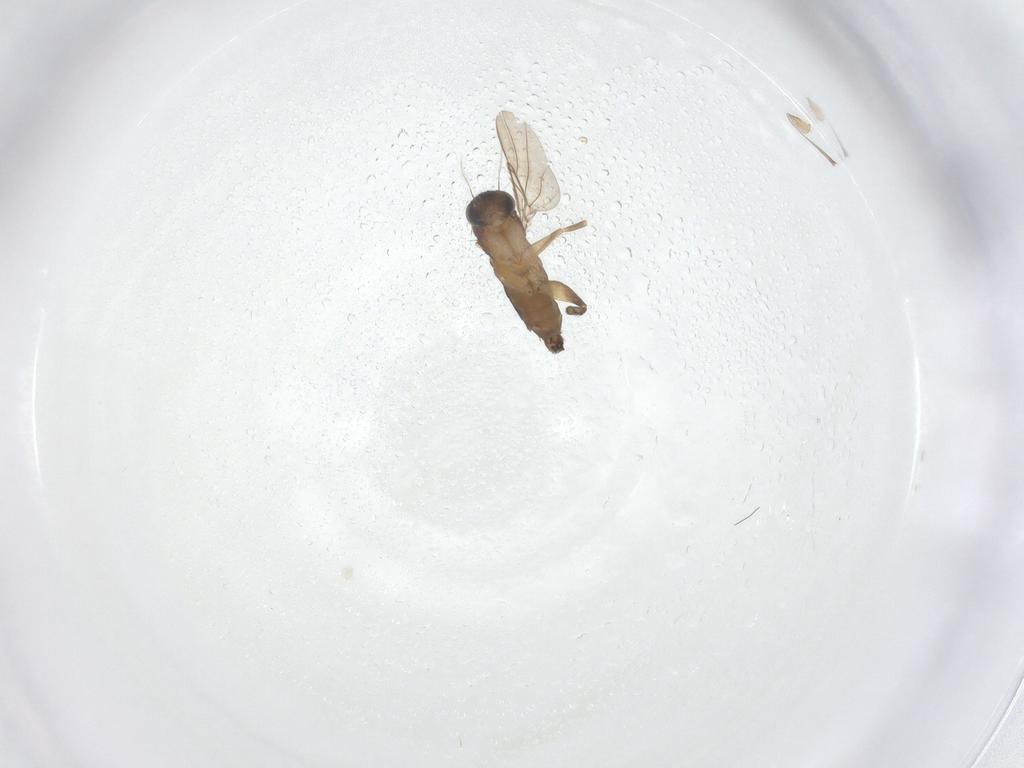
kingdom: Animalia
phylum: Arthropoda
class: Insecta
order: Diptera
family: Phoridae
